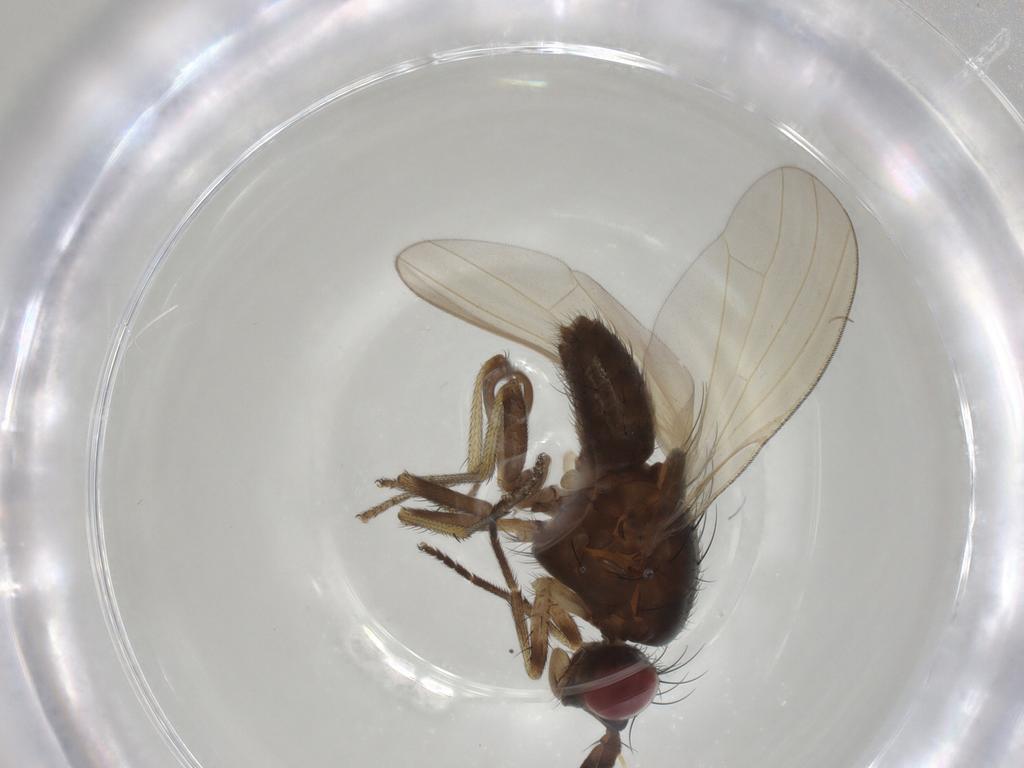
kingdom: Animalia
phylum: Arthropoda
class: Insecta
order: Diptera
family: Lauxaniidae
